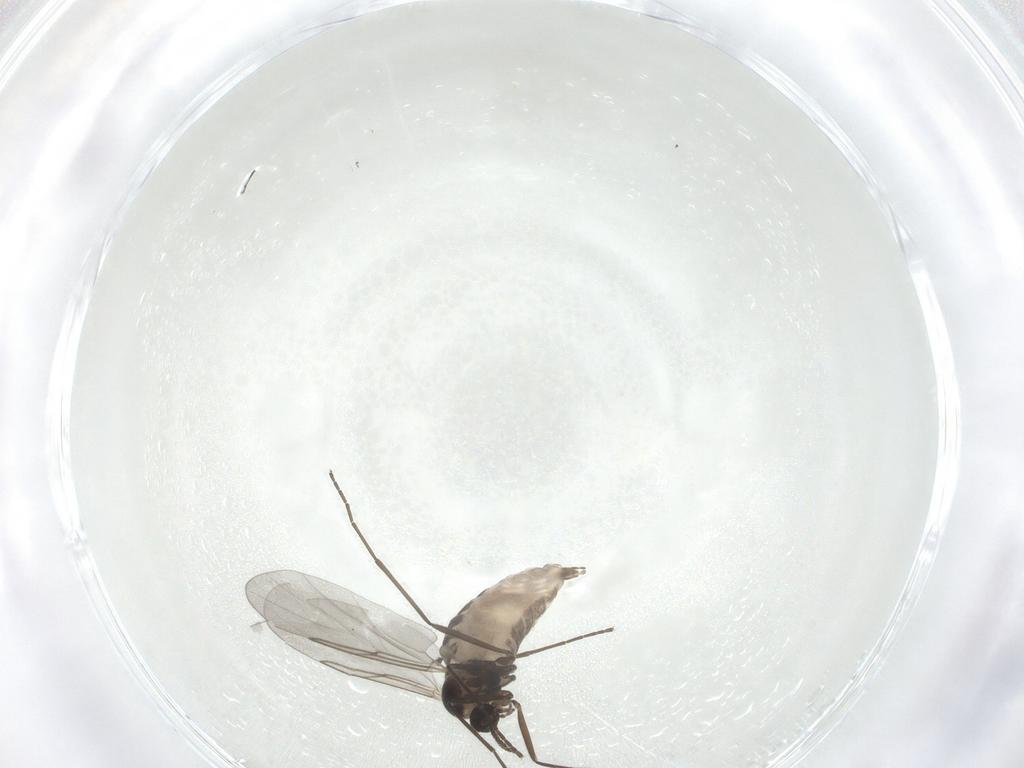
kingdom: Animalia
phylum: Arthropoda
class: Insecta
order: Diptera
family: Cecidomyiidae
